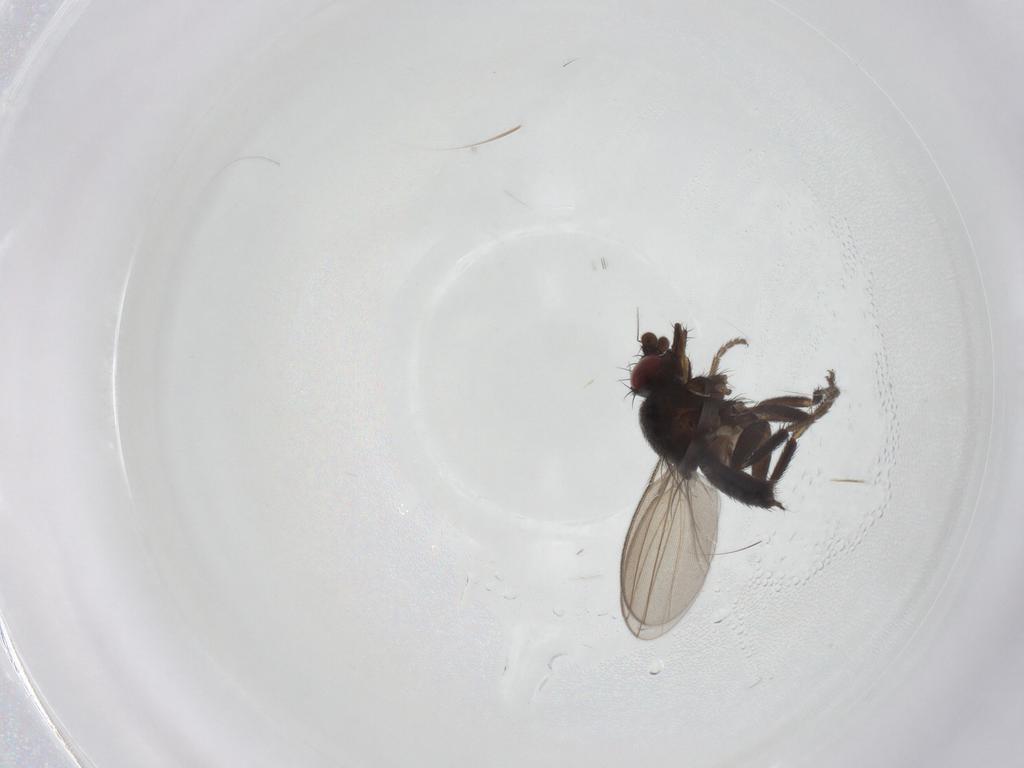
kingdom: Animalia
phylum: Arthropoda
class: Insecta
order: Diptera
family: Milichiidae
